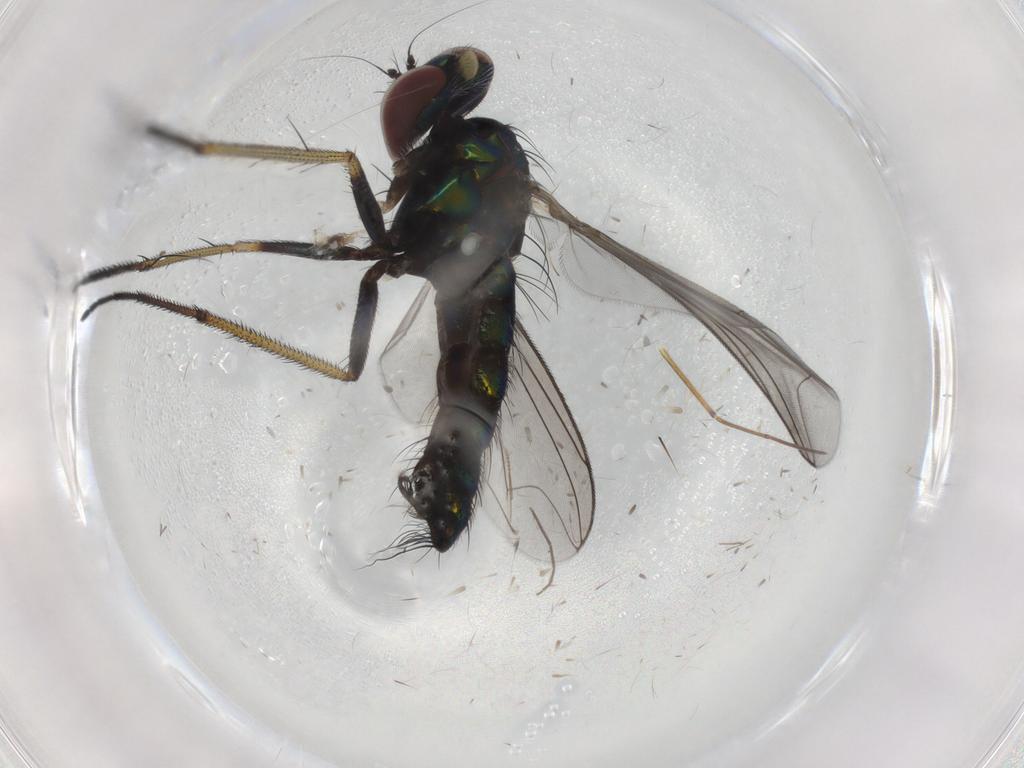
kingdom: Animalia
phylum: Arthropoda
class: Insecta
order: Diptera
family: Dolichopodidae
